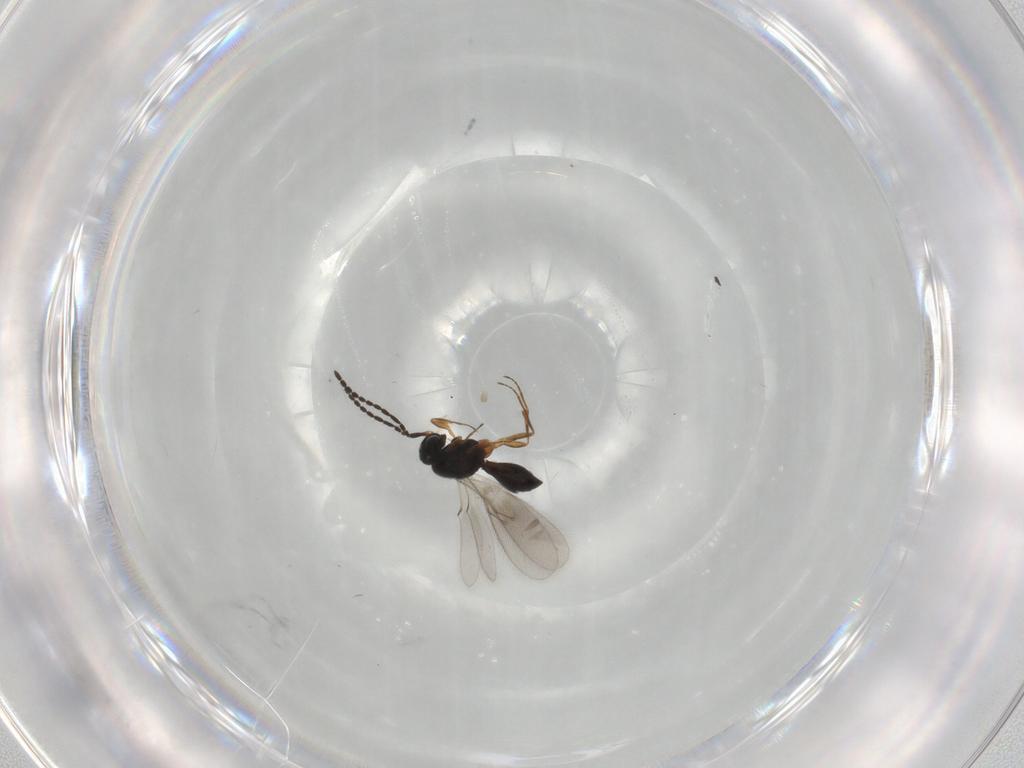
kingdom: Animalia
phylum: Arthropoda
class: Insecta
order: Hymenoptera
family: Scelionidae
